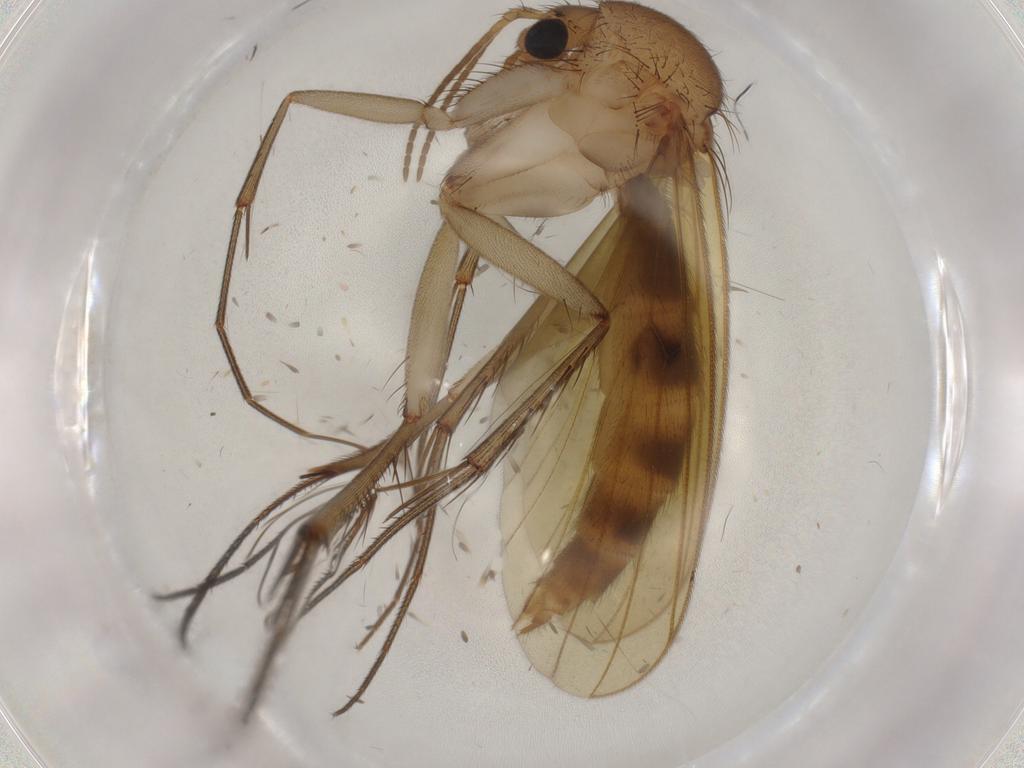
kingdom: Animalia
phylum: Arthropoda
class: Insecta
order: Diptera
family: Mycetophilidae
